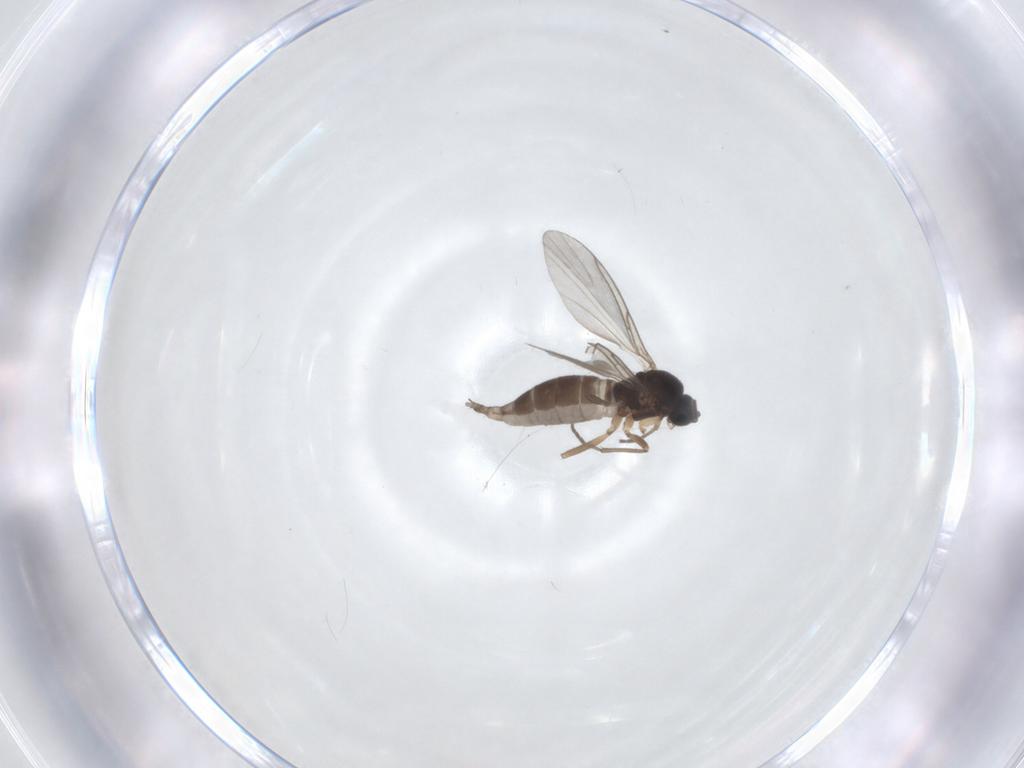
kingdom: Animalia
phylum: Arthropoda
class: Insecta
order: Diptera
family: Sciaridae
